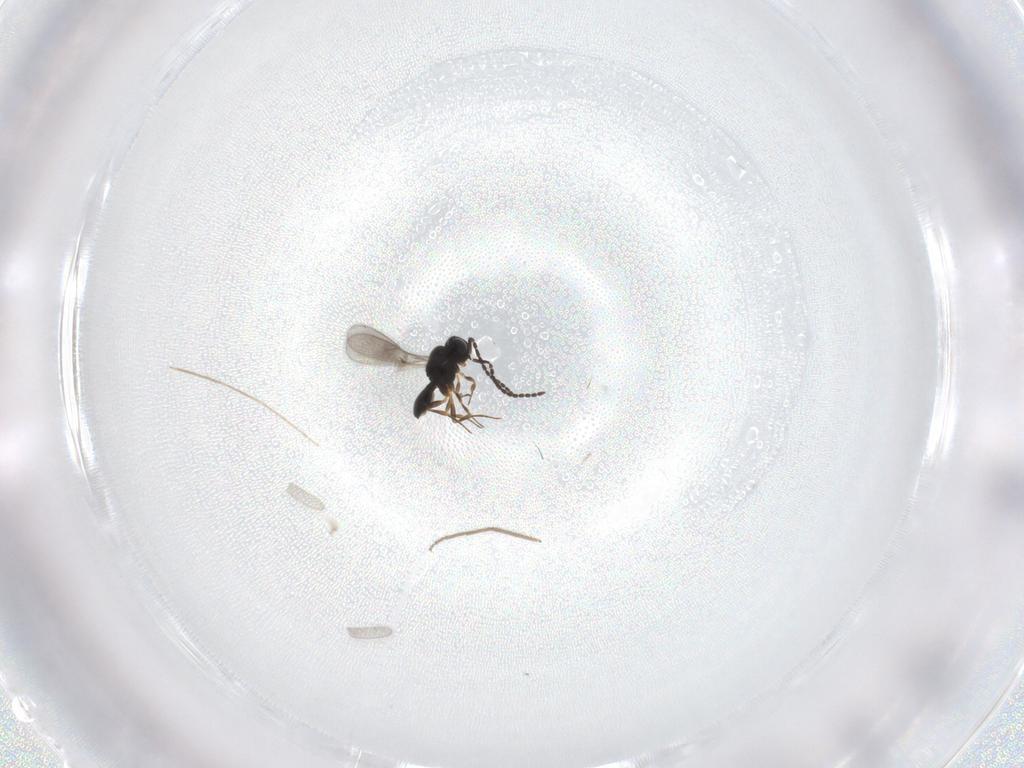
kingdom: Animalia
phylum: Arthropoda
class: Insecta
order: Hymenoptera
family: Scelionidae
